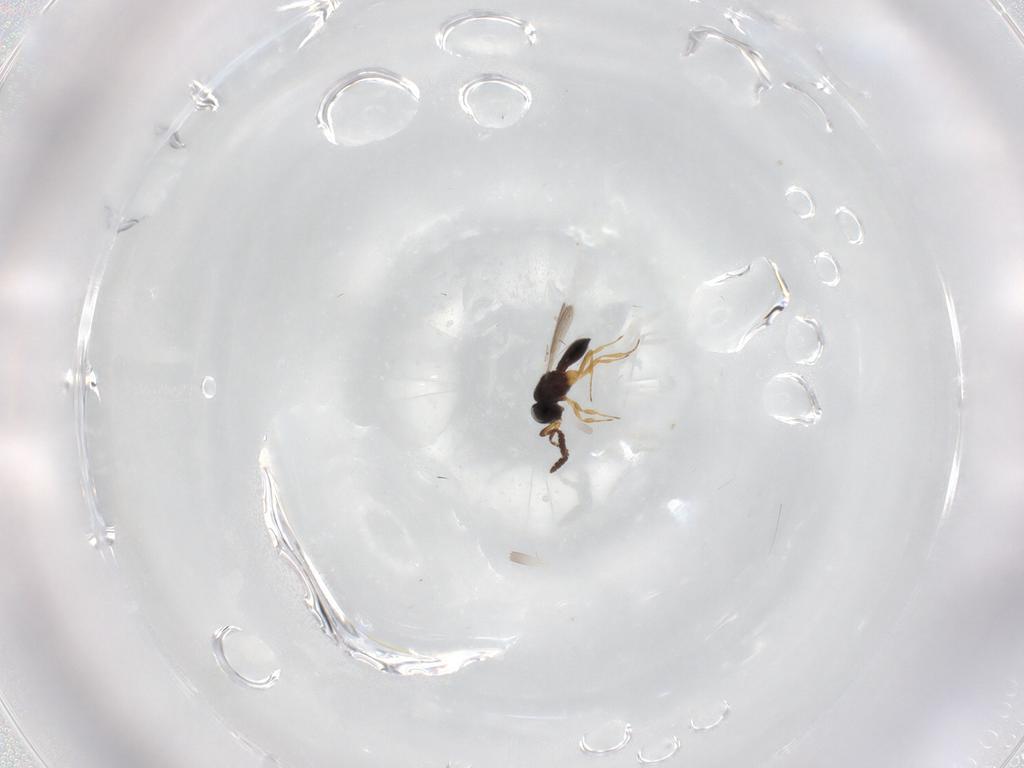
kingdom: Animalia
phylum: Arthropoda
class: Insecta
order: Hymenoptera
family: Scelionidae
